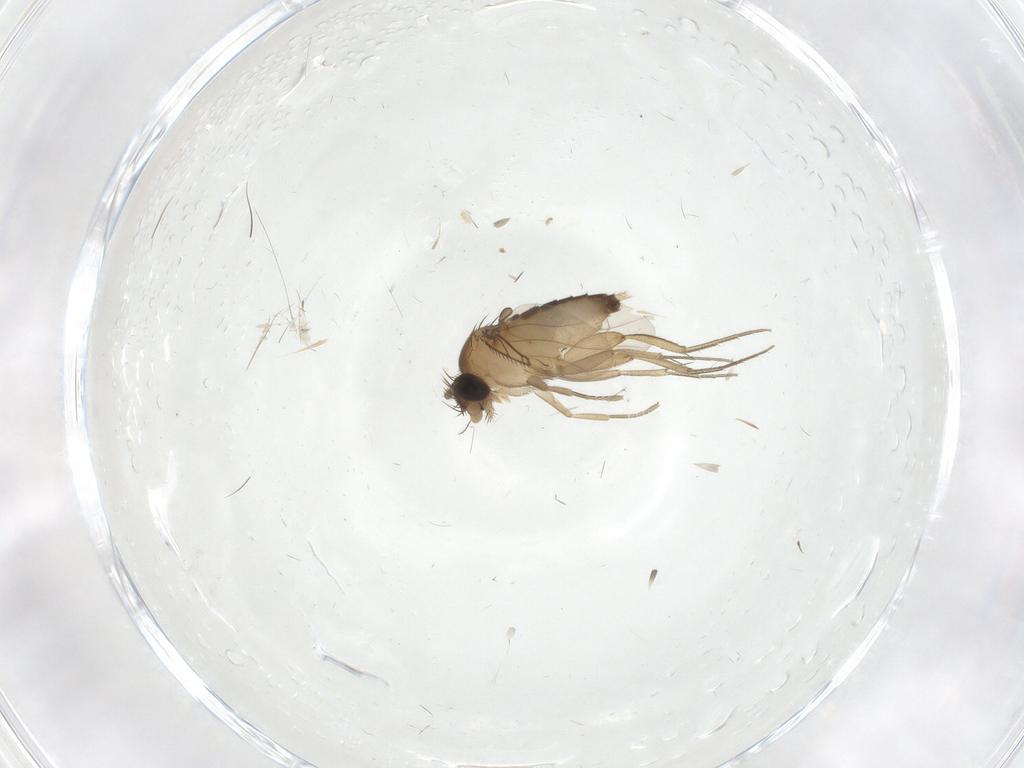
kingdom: Animalia
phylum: Arthropoda
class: Insecta
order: Diptera
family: Phoridae
